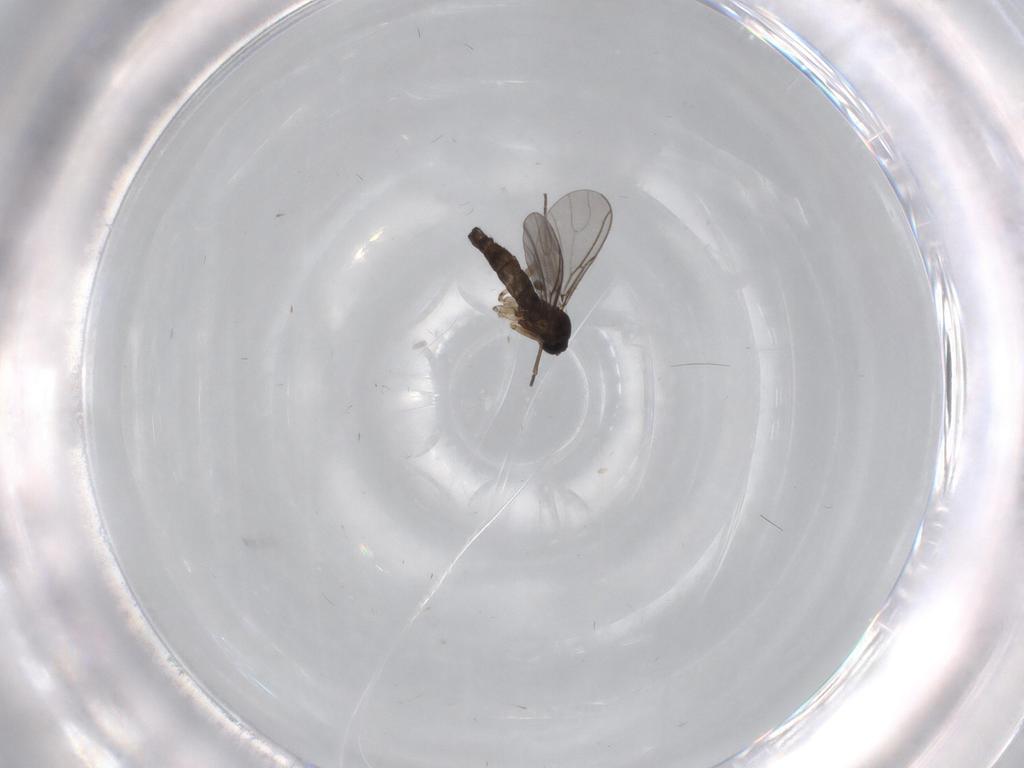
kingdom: Animalia
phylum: Arthropoda
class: Insecta
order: Diptera
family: Sciaridae
